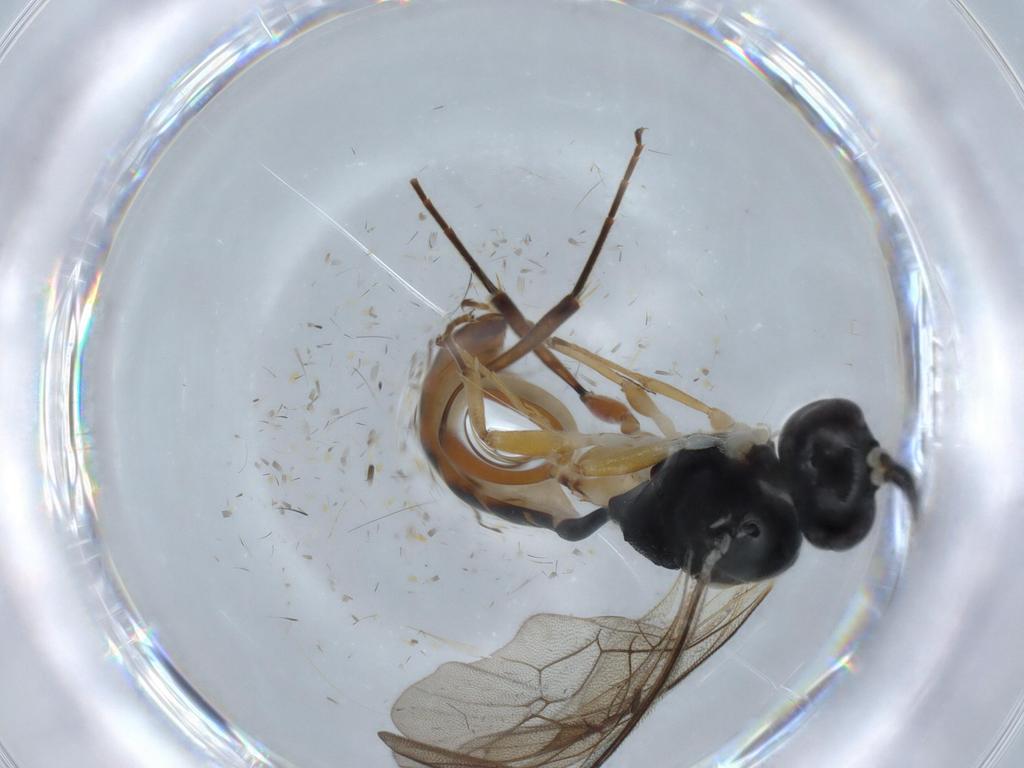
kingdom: Animalia
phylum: Arthropoda
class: Insecta
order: Hymenoptera
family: Ichneumonidae
